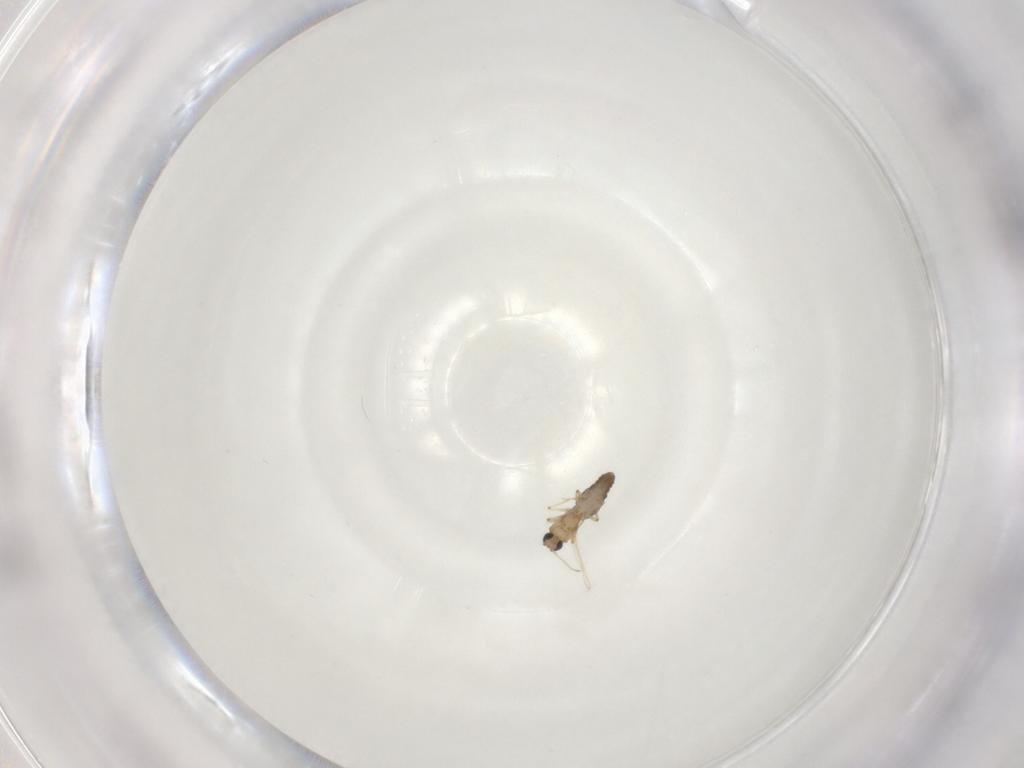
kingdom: Animalia
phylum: Arthropoda
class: Insecta
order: Diptera
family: Ceratopogonidae
